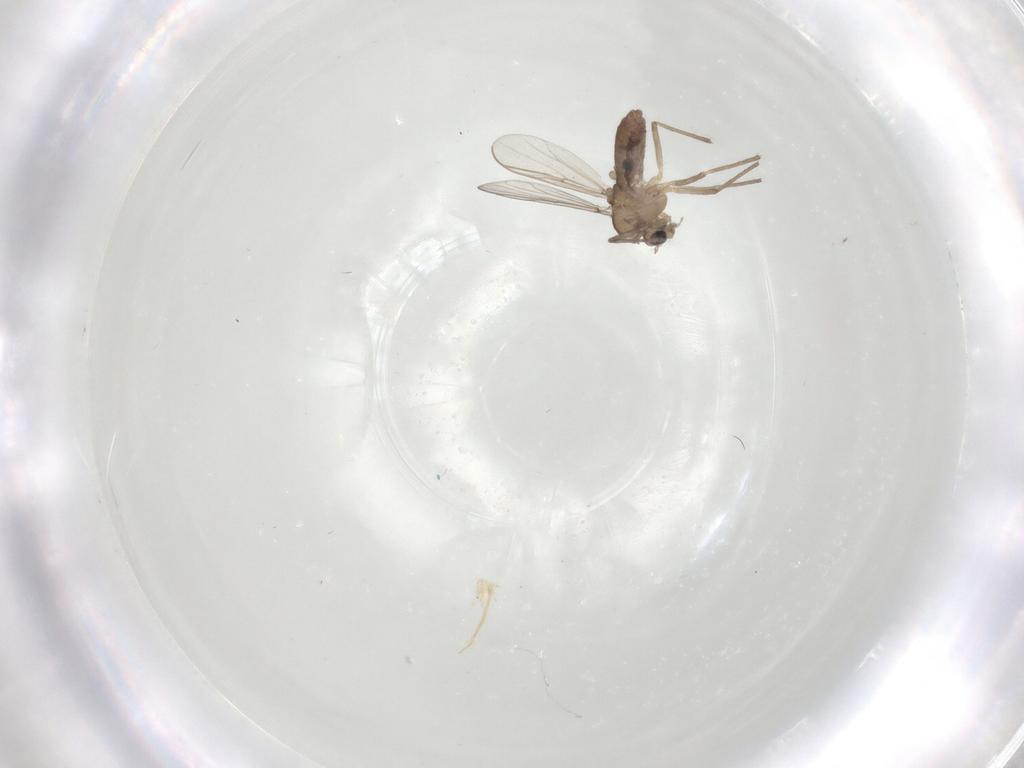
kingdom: Animalia
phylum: Arthropoda
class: Insecta
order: Diptera
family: Chironomidae
